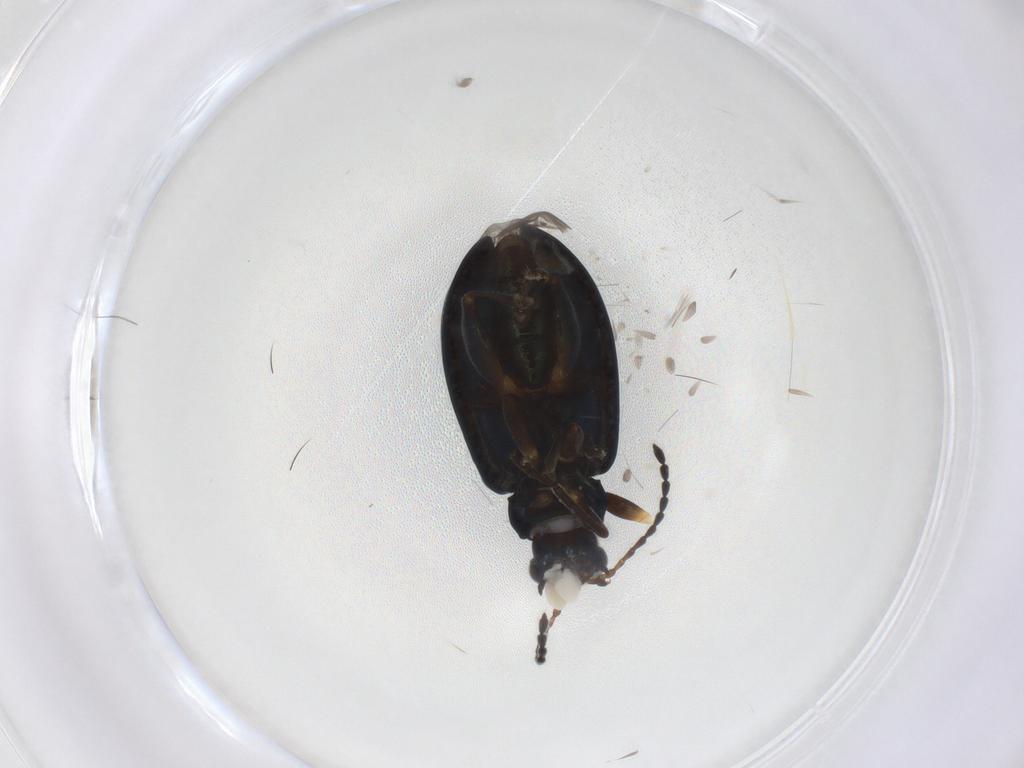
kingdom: Animalia
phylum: Arthropoda
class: Insecta
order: Coleoptera
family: Chrysomelidae
